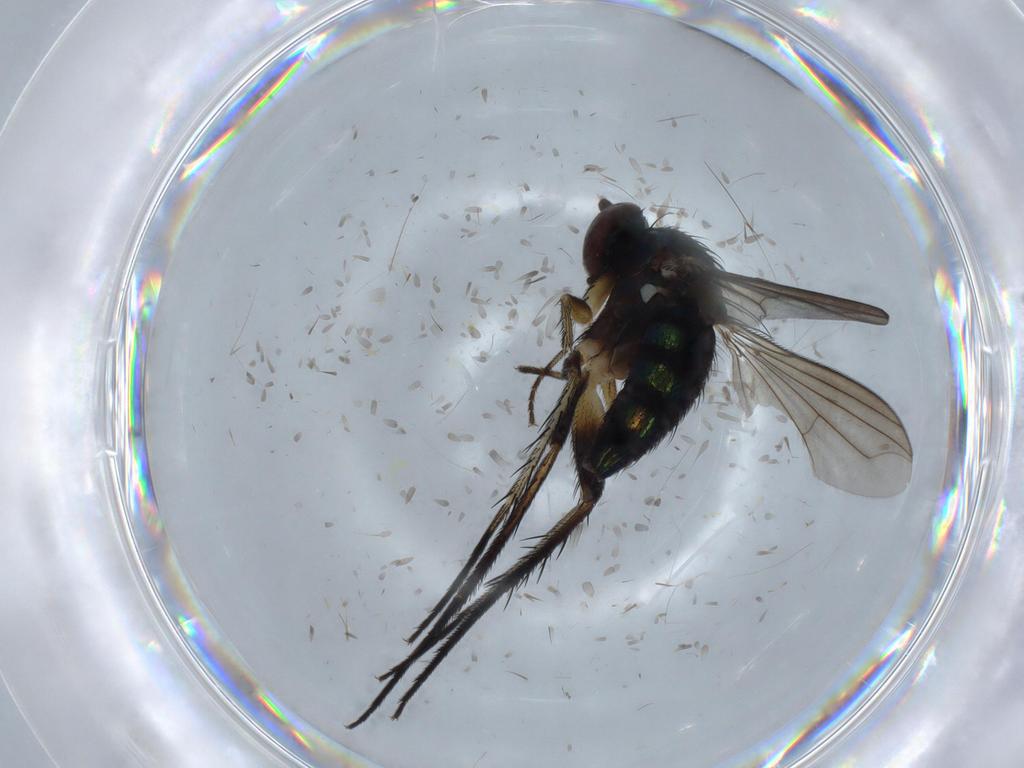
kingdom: Animalia
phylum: Arthropoda
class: Insecta
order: Diptera
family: Dolichopodidae
